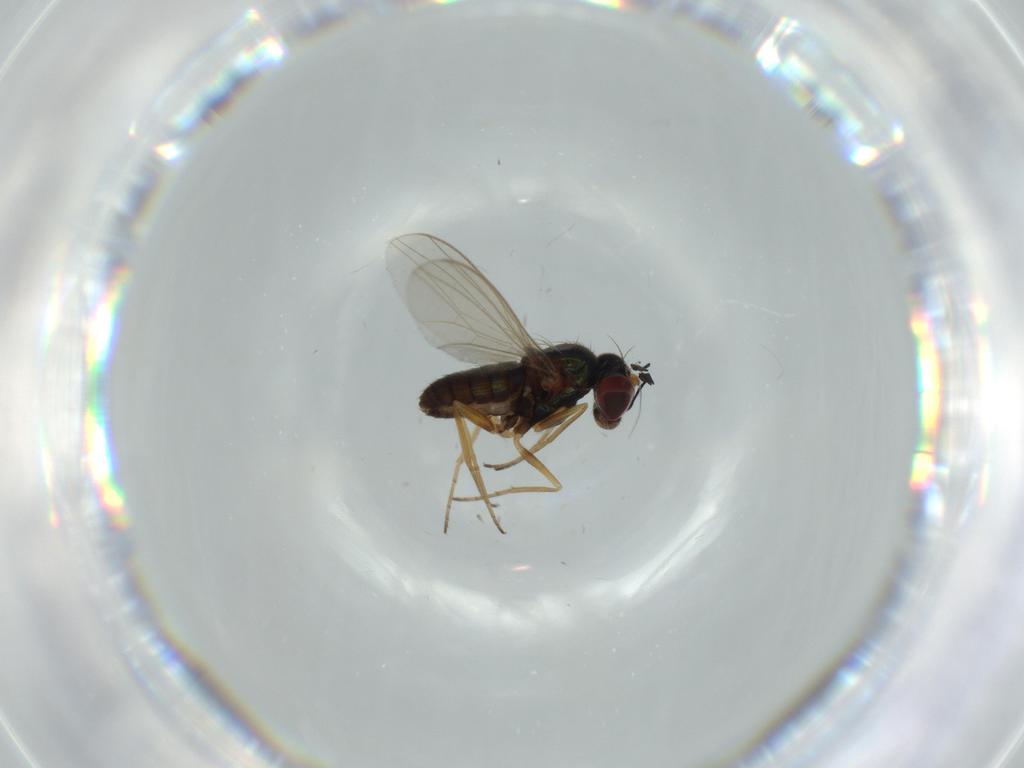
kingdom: Animalia
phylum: Arthropoda
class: Insecta
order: Diptera
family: Dolichopodidae
